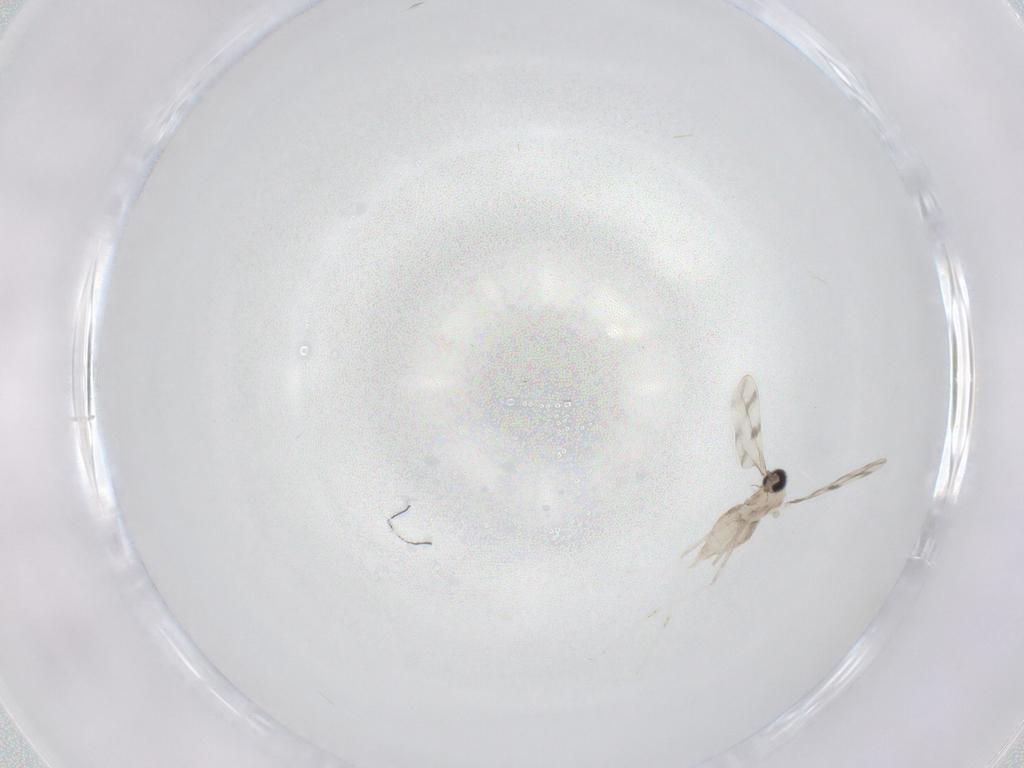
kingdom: Animalia
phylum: Arthropoda
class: Insecta
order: Diptera
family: Cecidomyiidae
